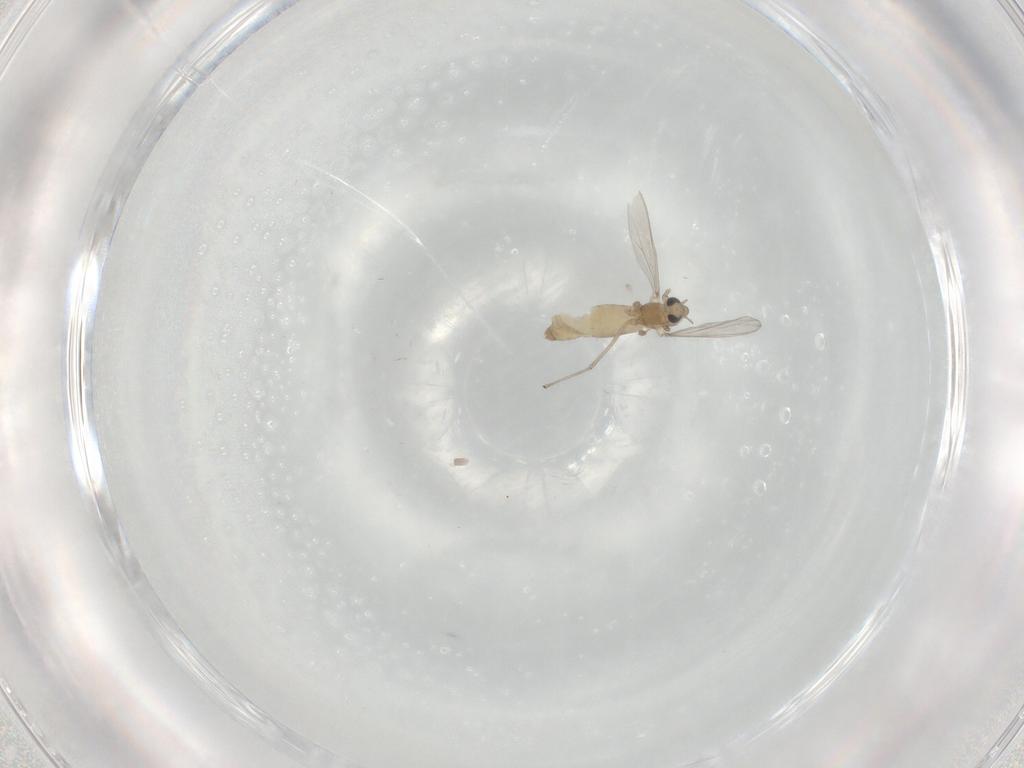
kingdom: Animalia
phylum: Arthropoda
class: Insecta
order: Diptera
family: Chironomidae
